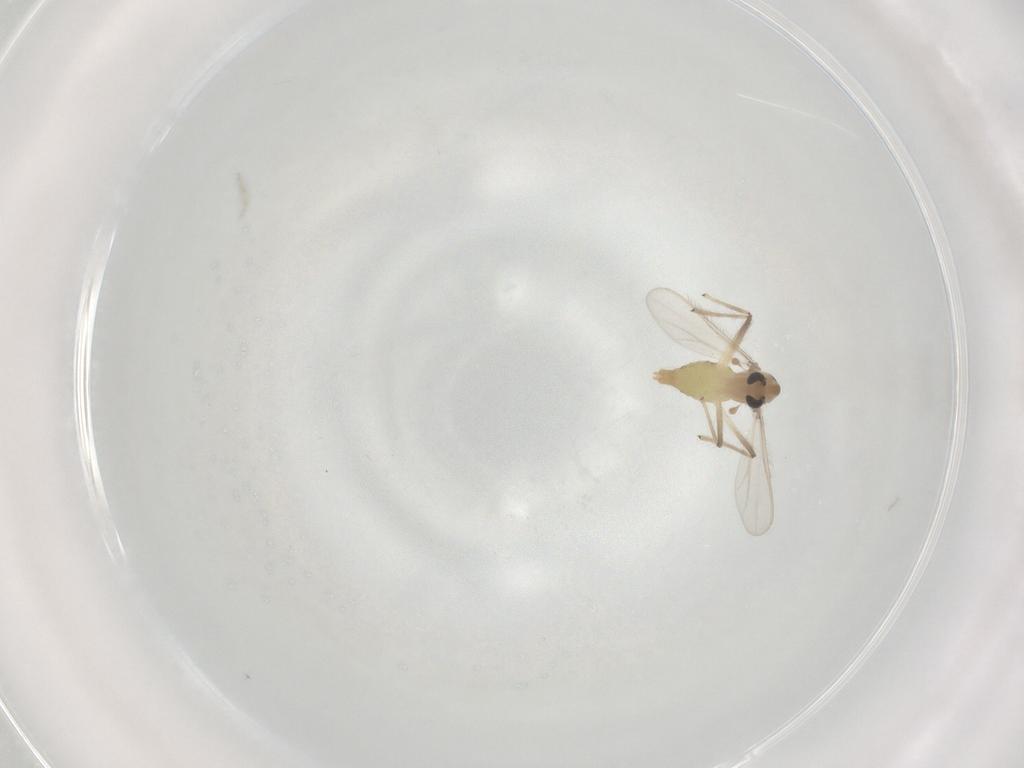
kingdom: Animalia
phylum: Arthropoda
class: Insecta
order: Diptera
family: Chironomidae
